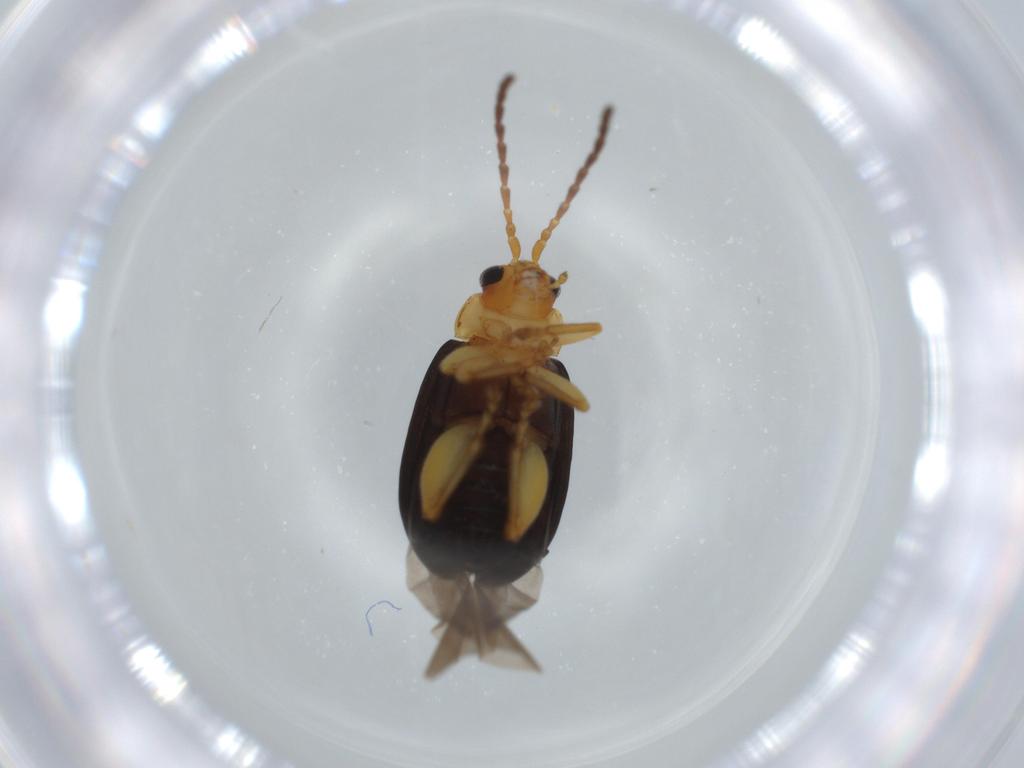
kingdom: Animalia
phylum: Arthropoda
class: Insecta
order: Coleoptera
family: Chrysomelidae
